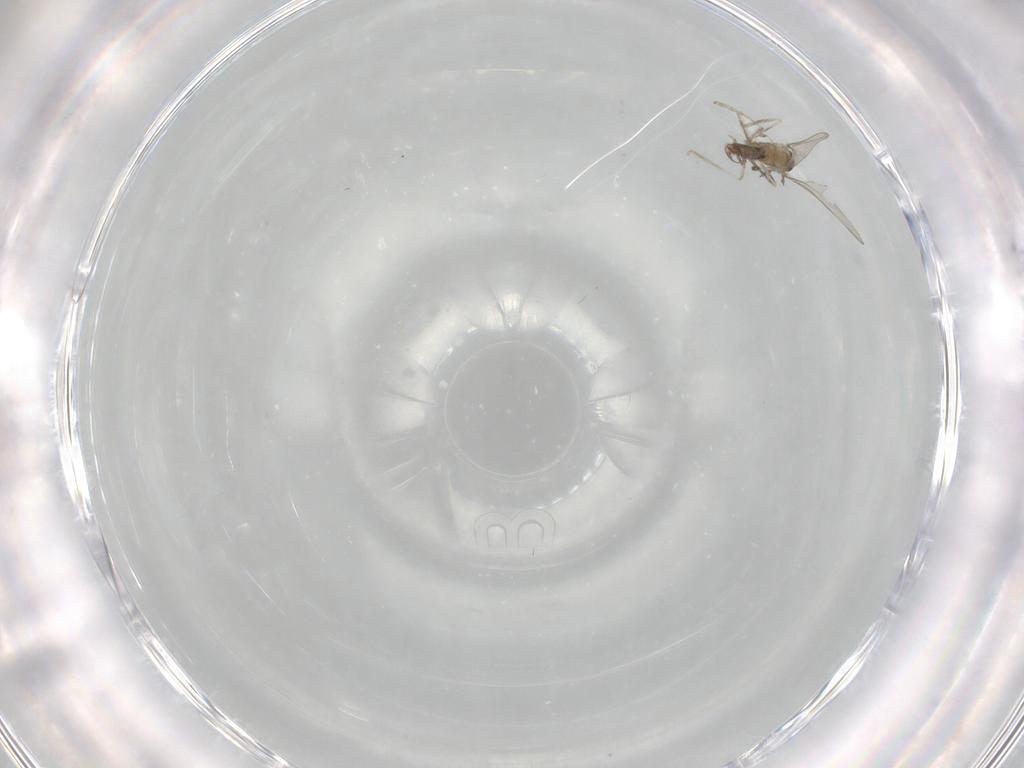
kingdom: Animalia
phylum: Arthropoda
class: Insecta
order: Diptera
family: Cecidomyiidae
